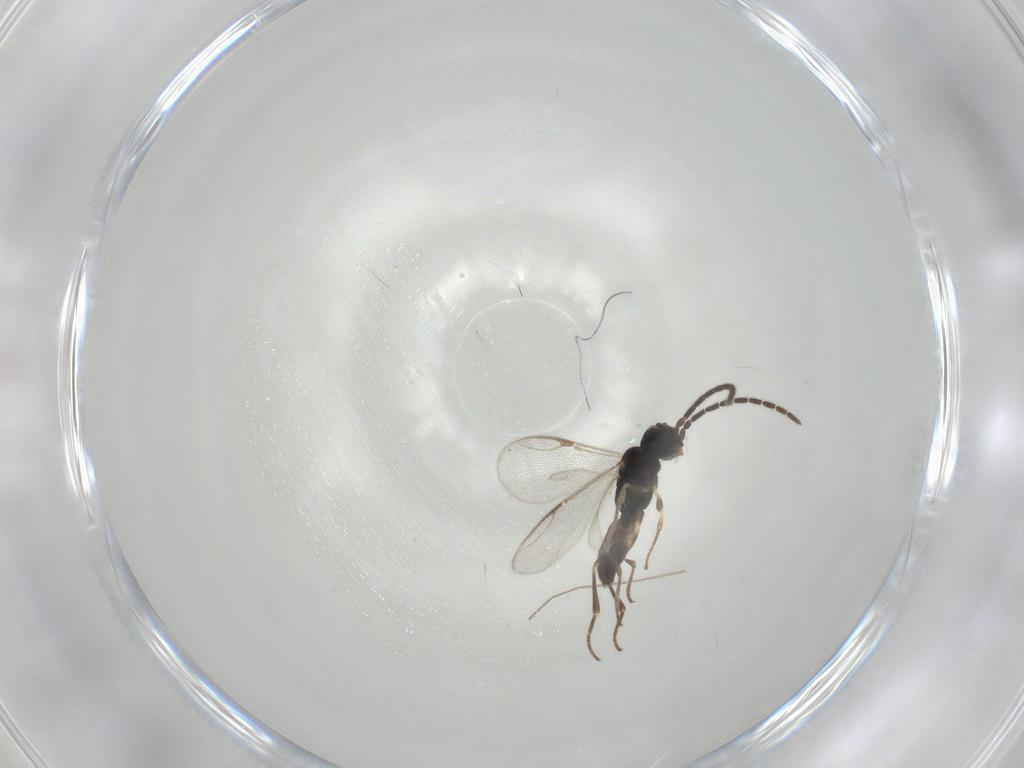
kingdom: Animalia
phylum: Arthropoda
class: Insecta
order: Hymenoptera
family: Dryinidae
